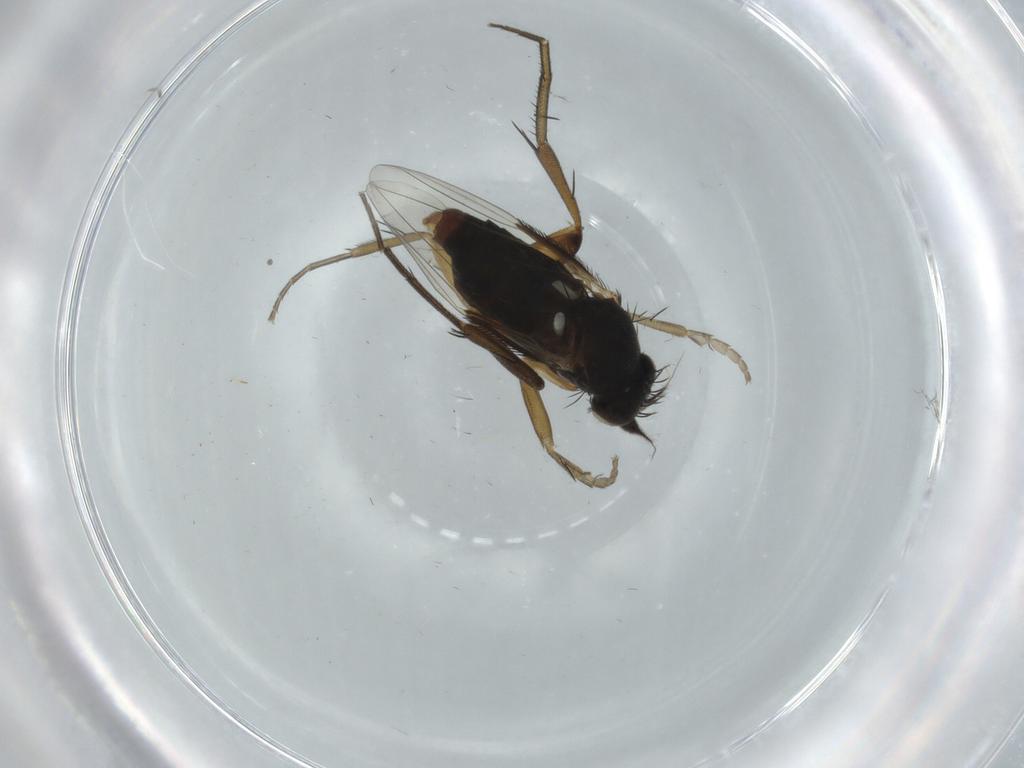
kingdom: Animalia
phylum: Arthropoda
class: Insecta
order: Diptera
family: Phoridae
